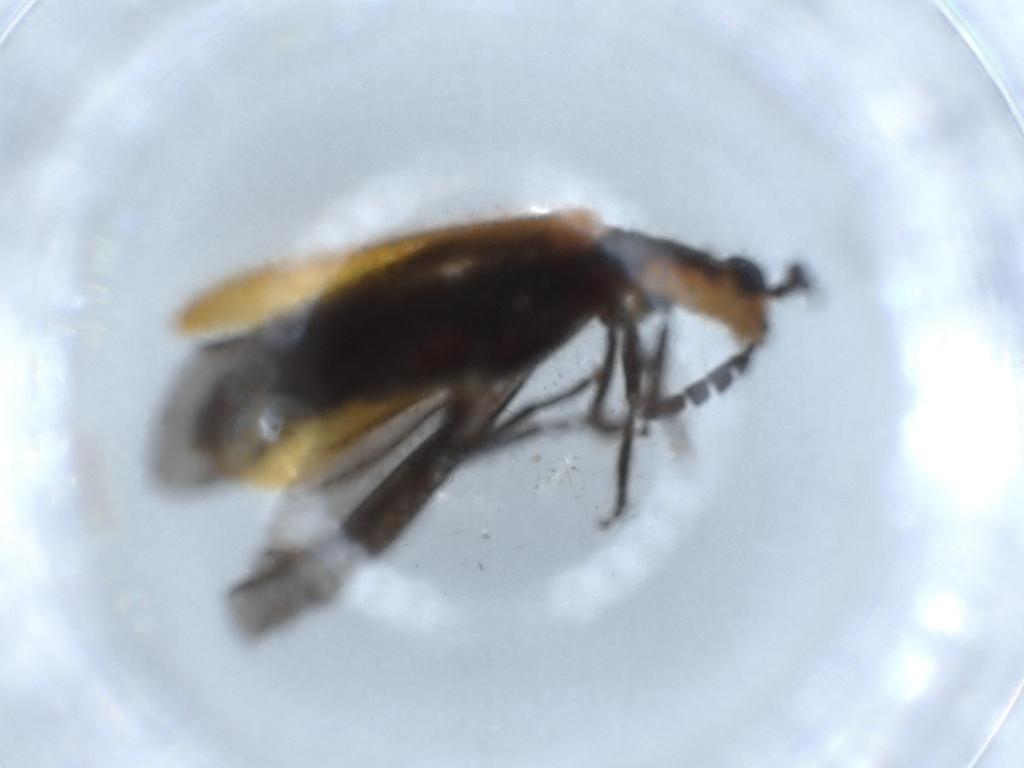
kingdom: Animalia
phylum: Arthropoda
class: Insecta
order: Coleoptera
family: Cleridae
